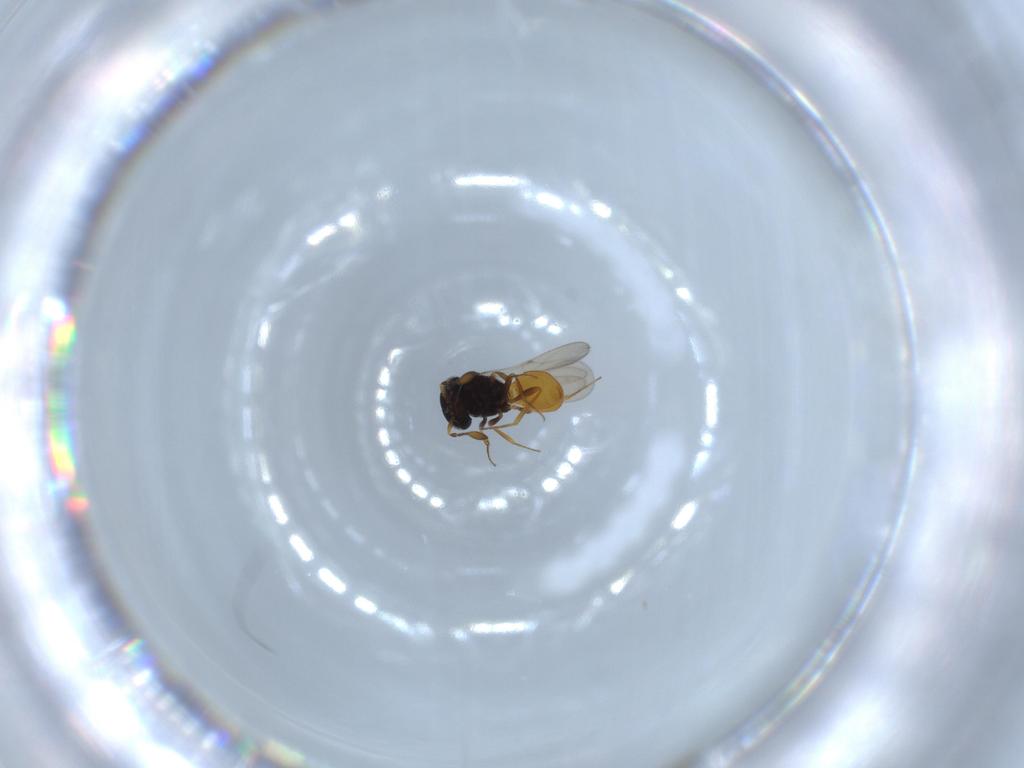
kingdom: Animalia
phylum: Arthropoda
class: Insecta
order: Hymenoptera
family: Scelionidae
